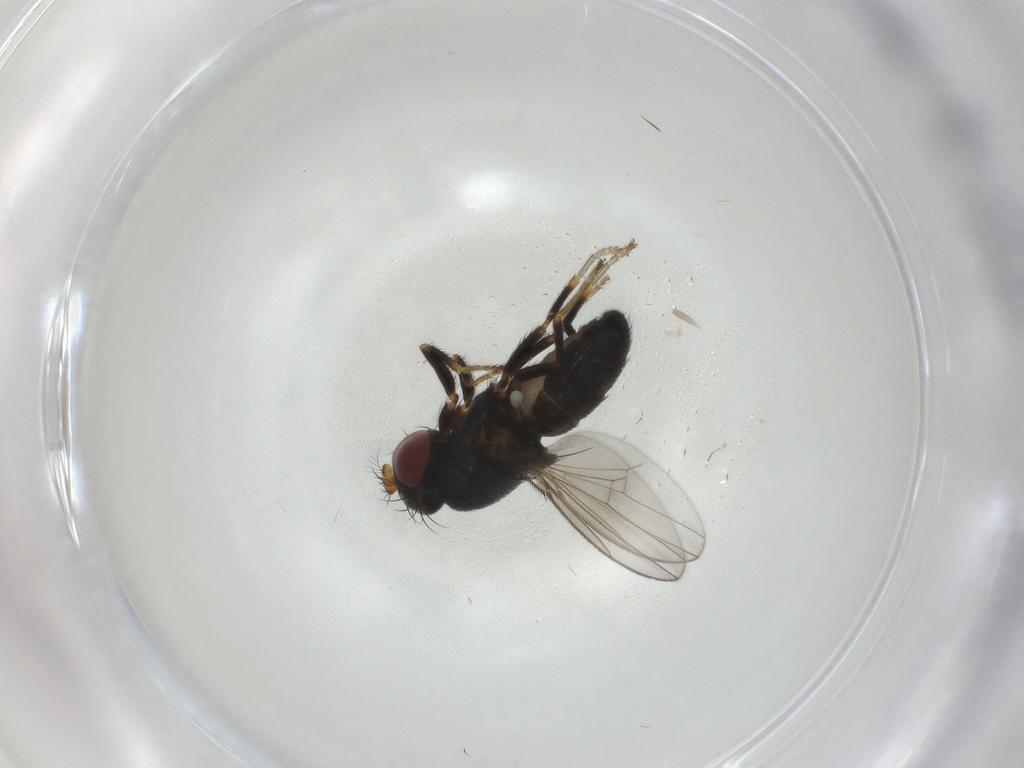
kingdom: Animalia
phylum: Arthropoda
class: Insecta
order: Diptera
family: Ephydridae
